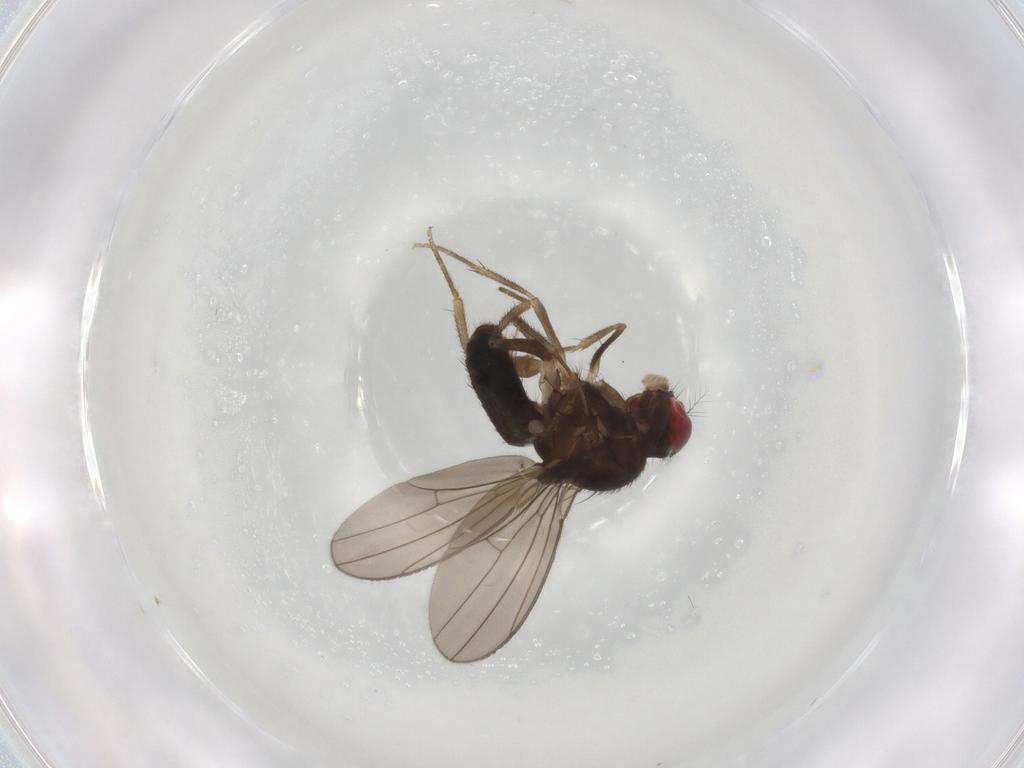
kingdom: Animalia
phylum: Arthropoda
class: Insecta
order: Diptera
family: Drosophilidae
